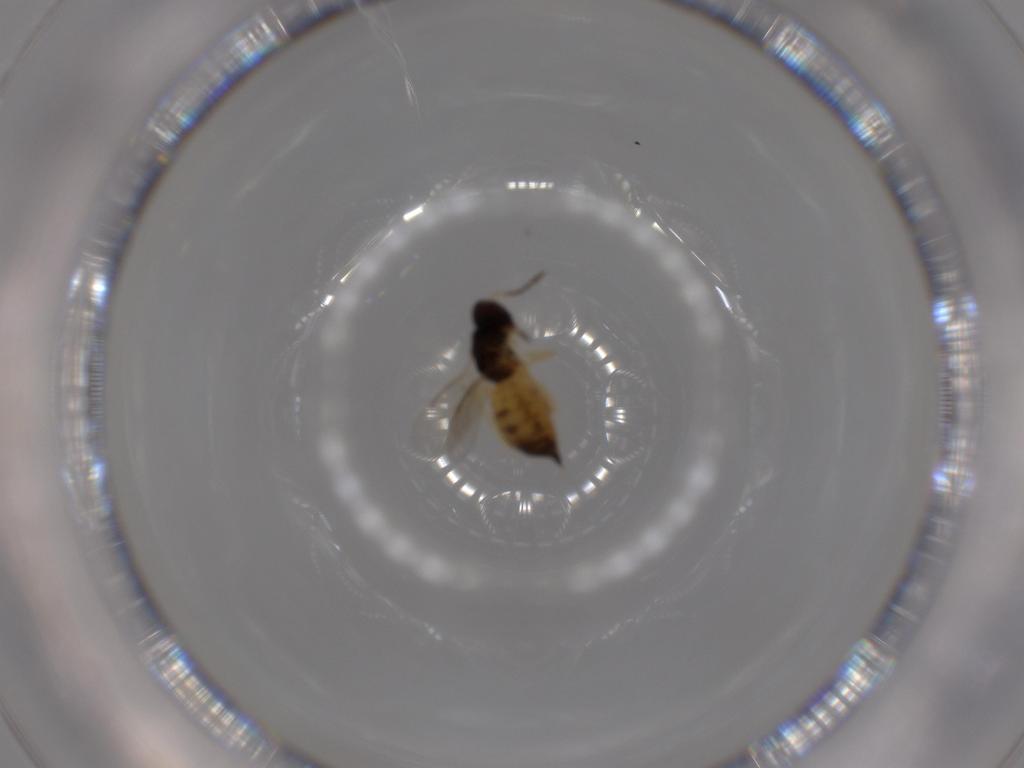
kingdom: Animalia
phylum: Arthropoda
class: Insecta
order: Hymenoptera
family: Eulophidae
